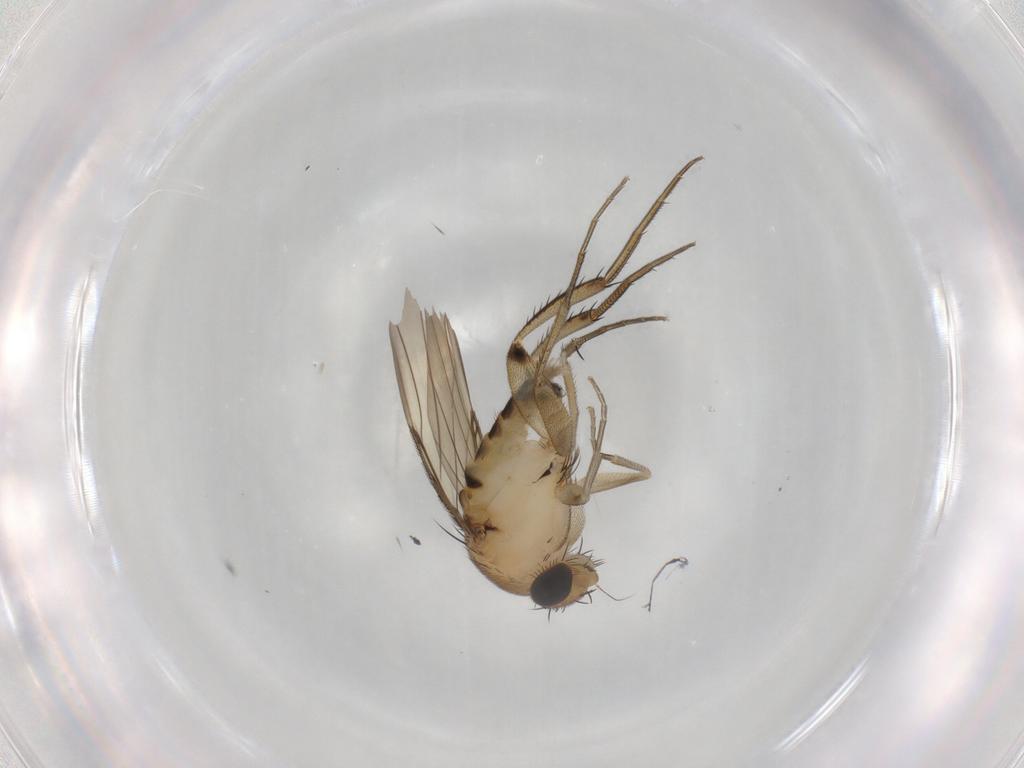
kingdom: Animalia
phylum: Arthropoda
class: Insecta
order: Diptera
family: Phoridae
